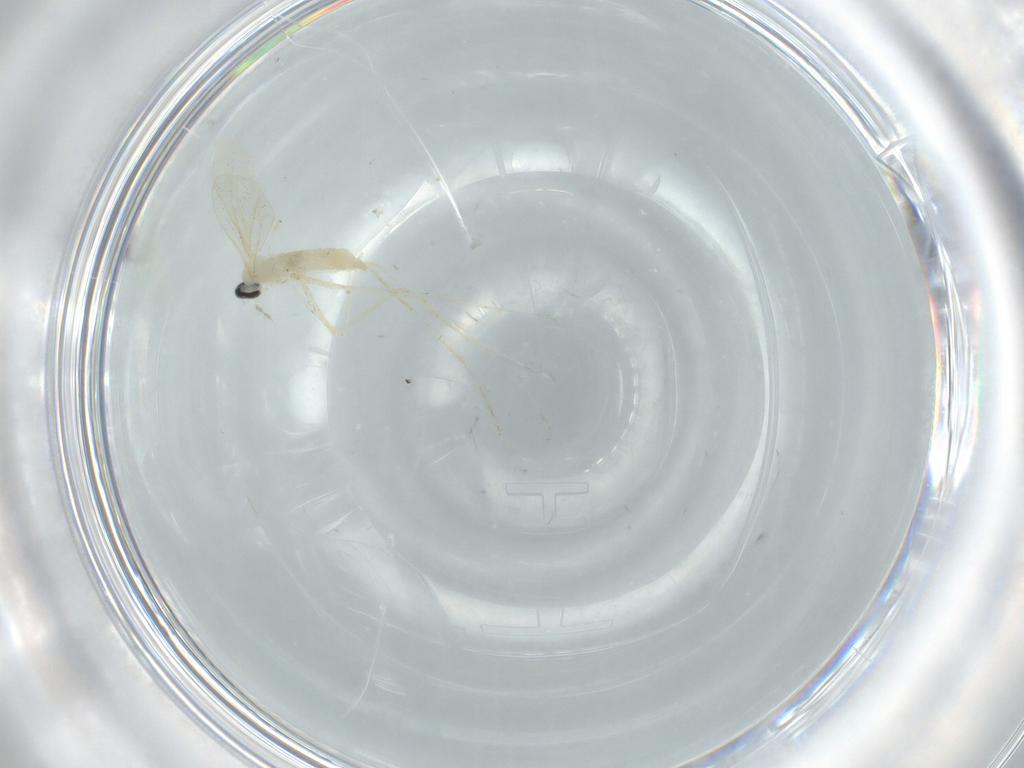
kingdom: Animalia
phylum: Arthropoda
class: Insecta
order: Diptera
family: Cecidomyiidae
